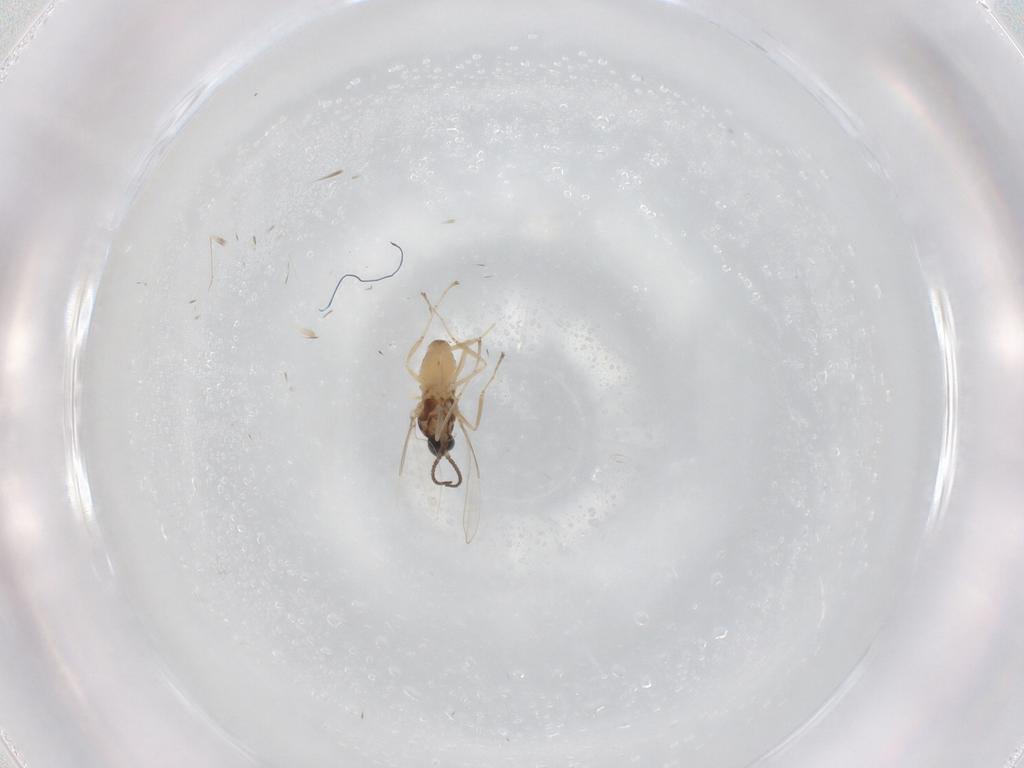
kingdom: Animalia
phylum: Arthropoda
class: Insecta
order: Diptera
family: Cecidomyiidae
